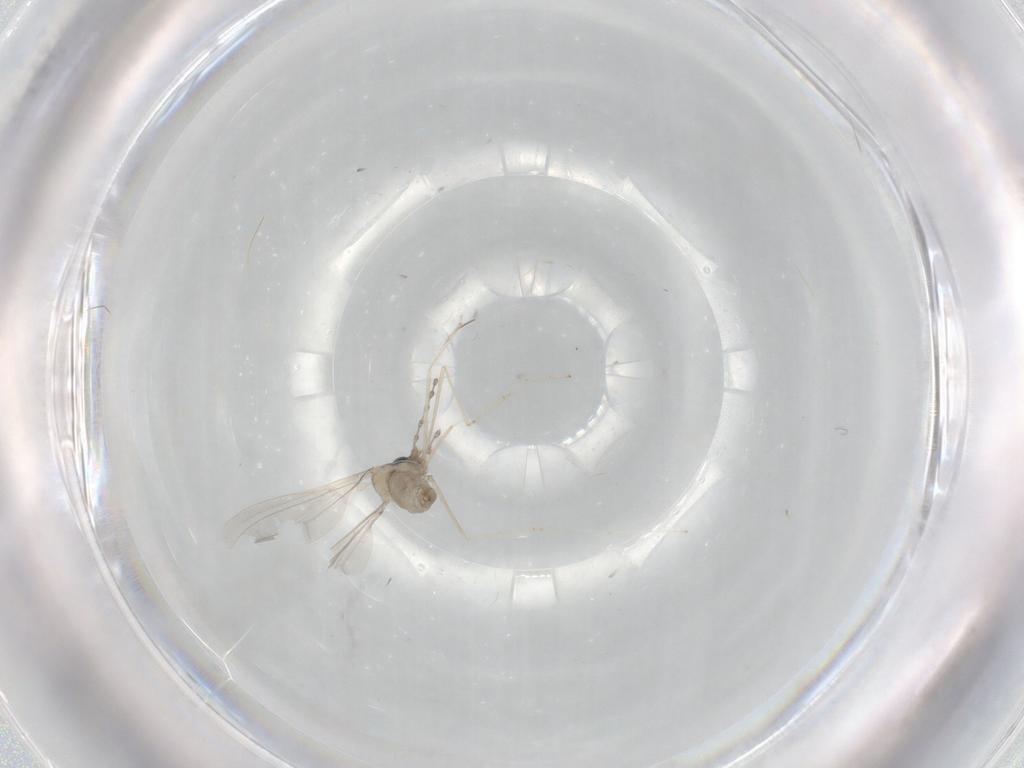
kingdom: Animalia
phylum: Arthropoda
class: Insecta
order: Diptera
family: Cecidomyiidae
